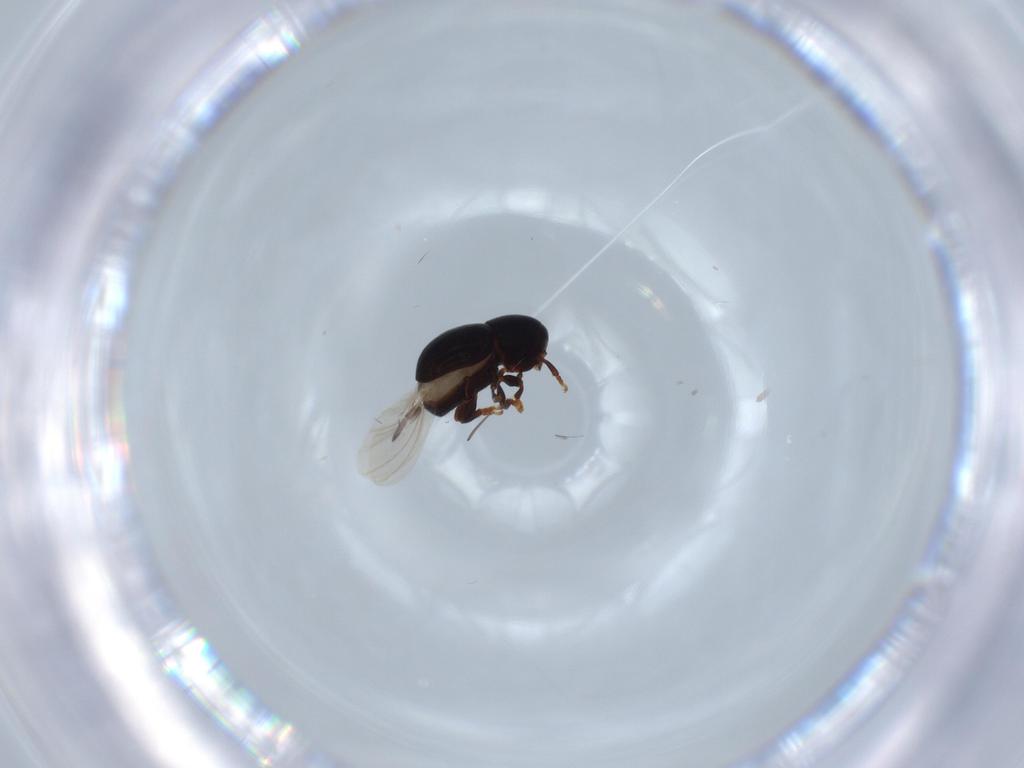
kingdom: Animalia
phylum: Arthropoda
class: Insecta
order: Coleoptera
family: Anthribidae
